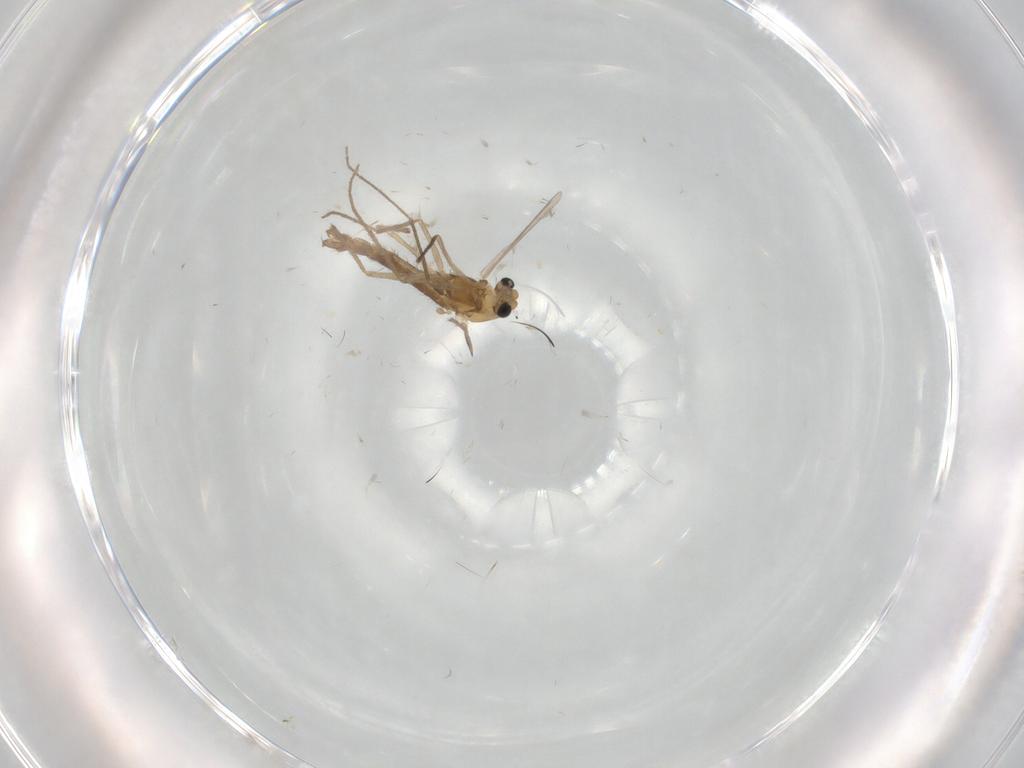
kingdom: Animalia
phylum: Arthropoda
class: Insecta
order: Diptera
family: Chironomidae
